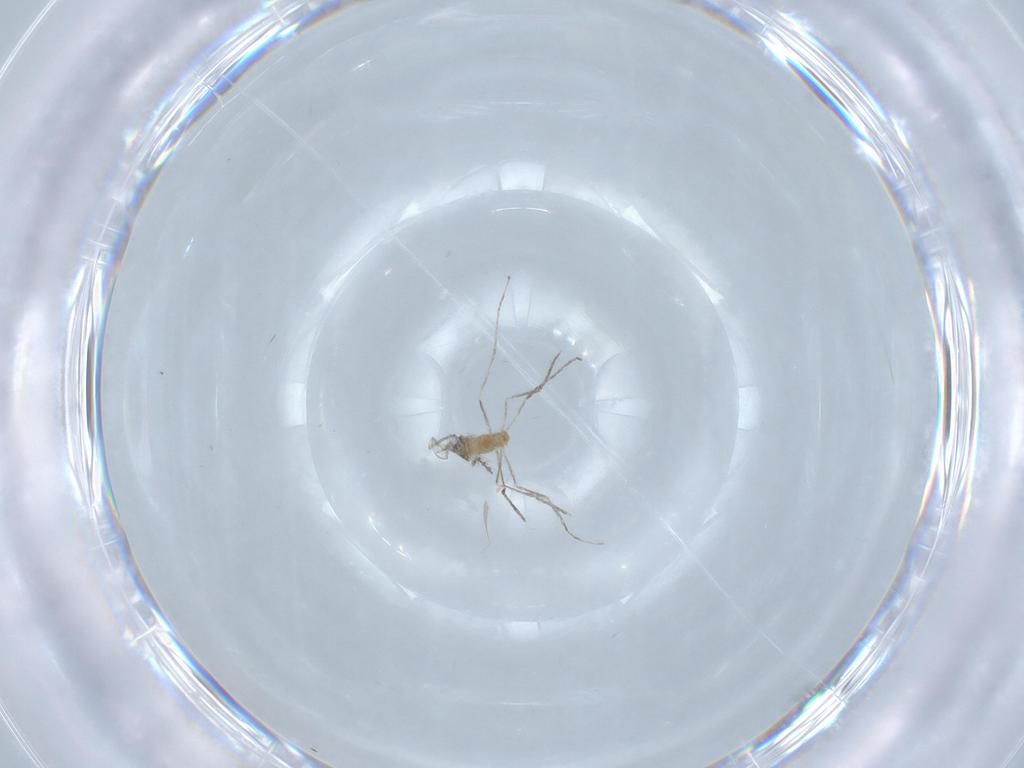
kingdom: Animalia
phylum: Arthropoda
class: Insecta
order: Diptera
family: Cecidomyiidae
